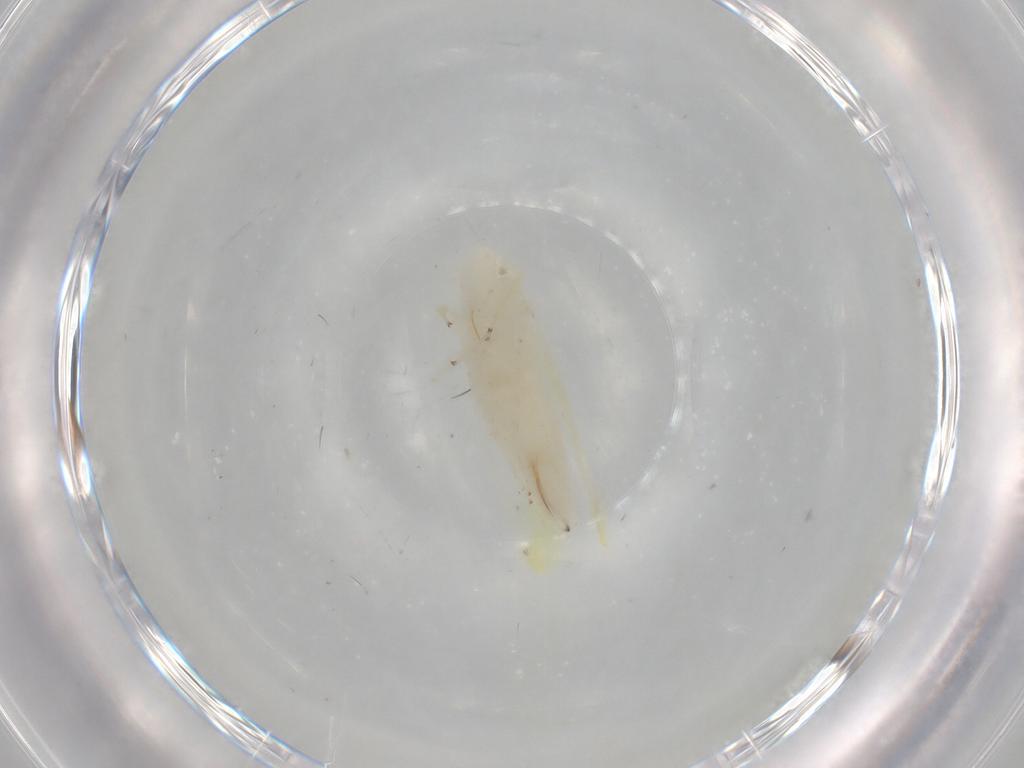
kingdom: Animalia
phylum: Arthropoda
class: Insecta
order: Hemiptera
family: Cicadellidae
